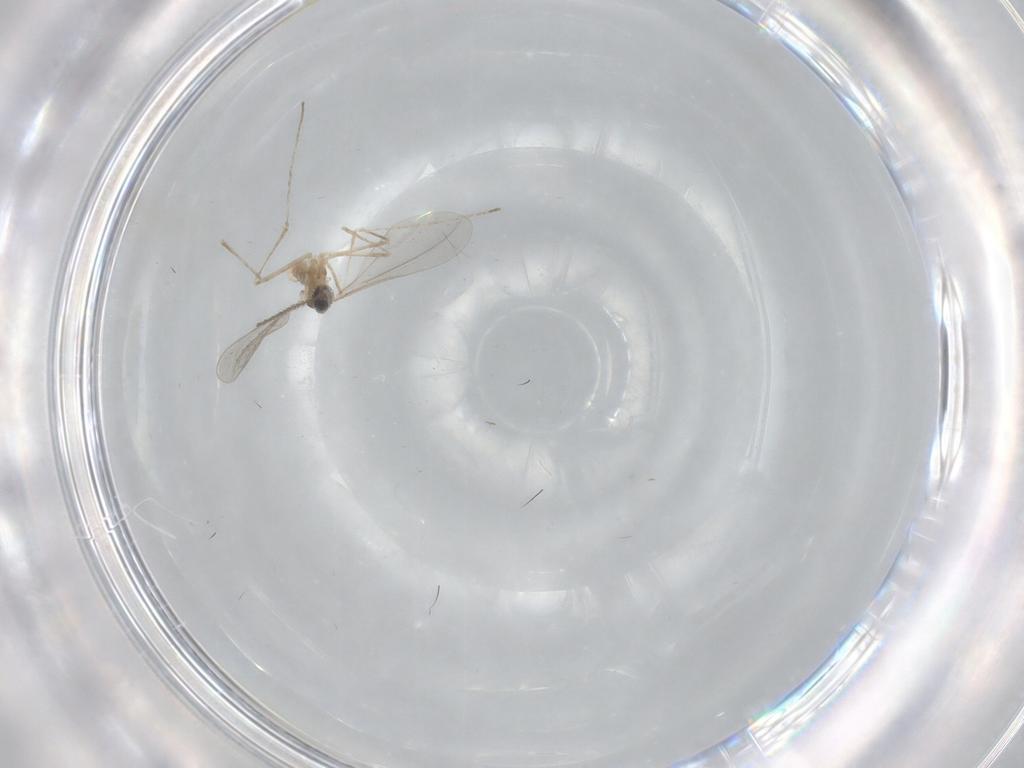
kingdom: Animalia
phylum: Arthropoda
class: Insecta
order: Diptera
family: Cecidomyiidae
